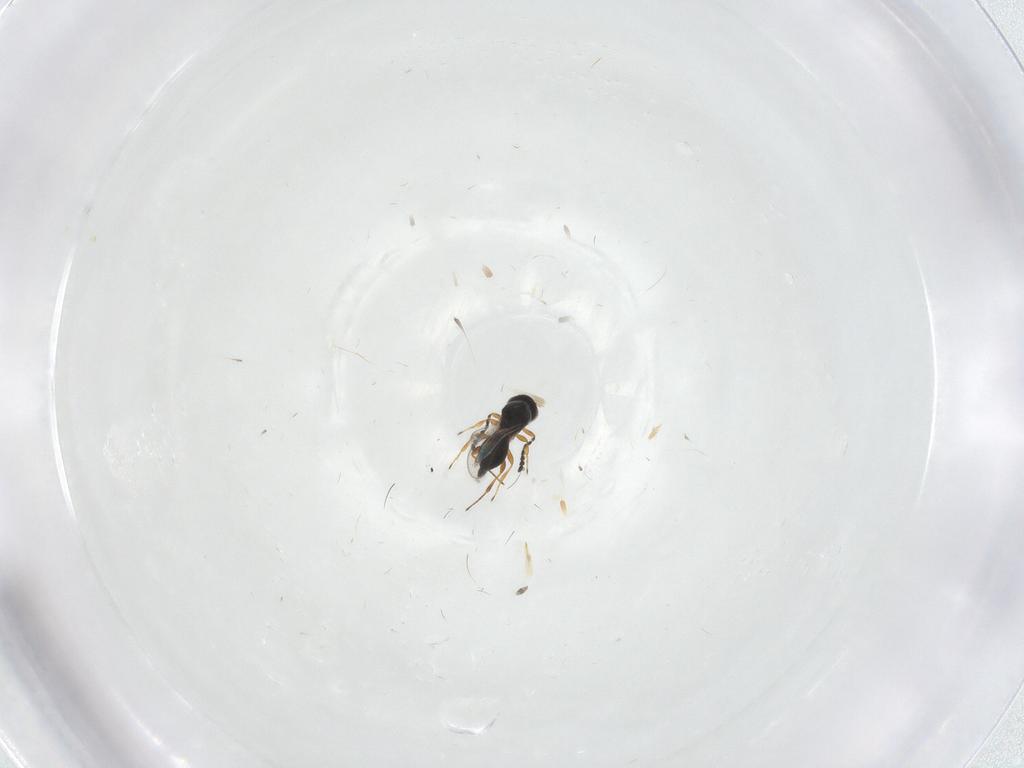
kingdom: Animalia
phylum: Arthropoda
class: Insecta
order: Hymenoptera
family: Platygastridae
